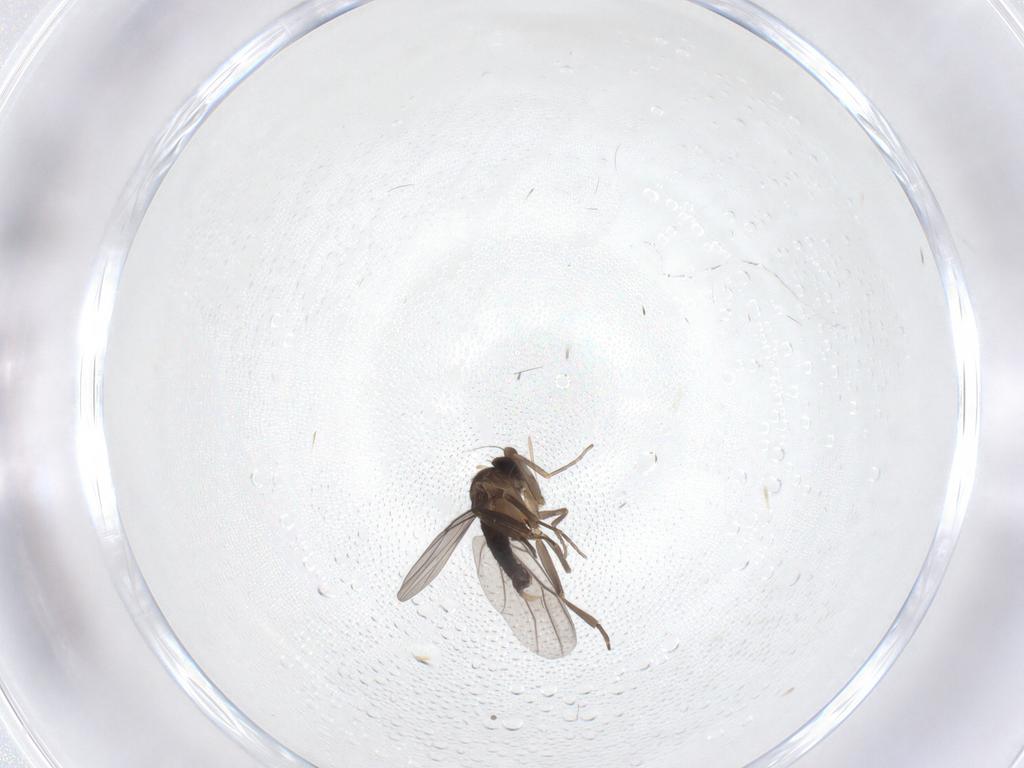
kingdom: Animalia
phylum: Arthropoda
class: Insecta
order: Diptera
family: Phoridae
